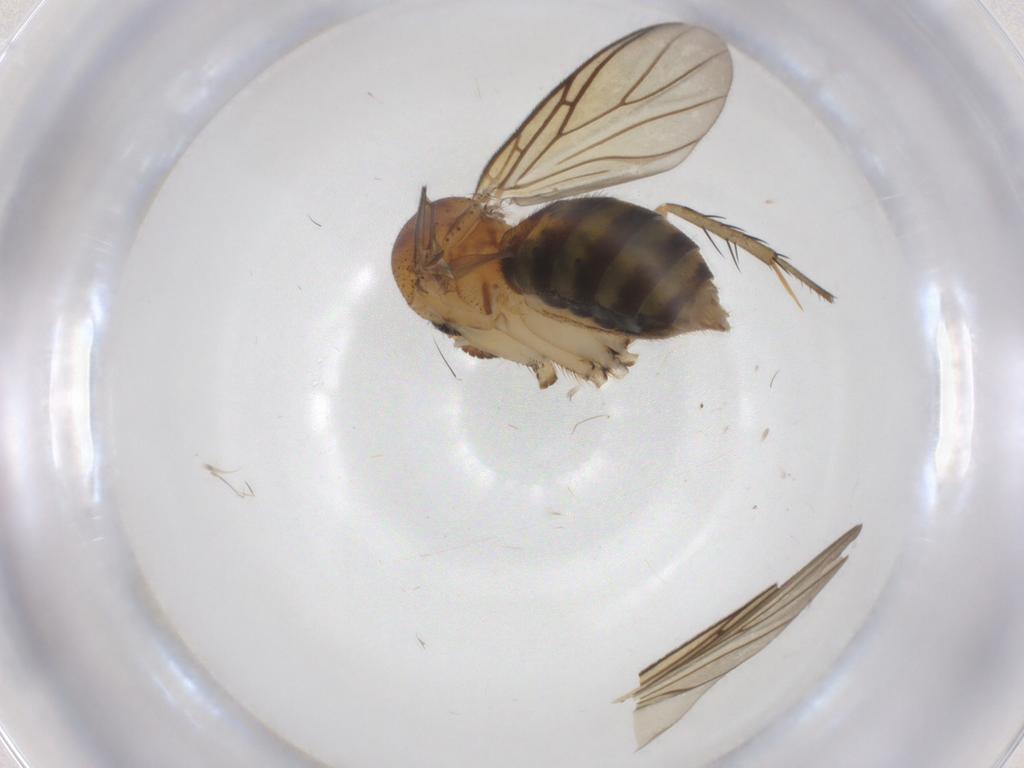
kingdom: Animalia
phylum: Arthropoda
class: Insecta
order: Diptera
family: Mycetophilidae
